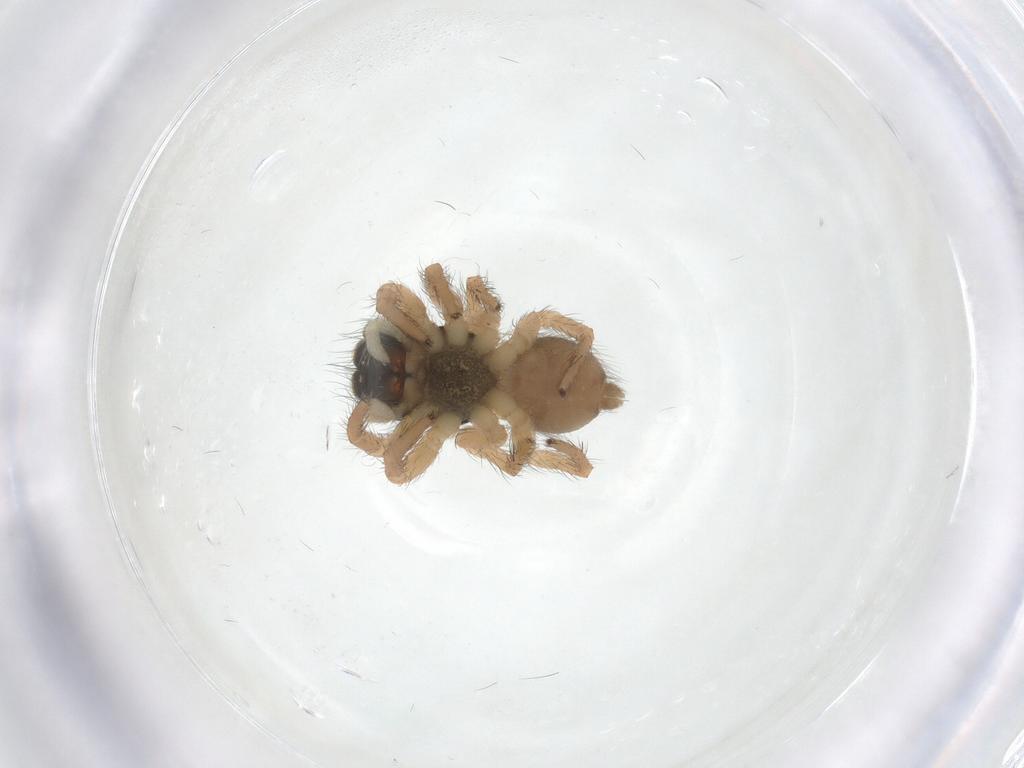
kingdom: Animalia
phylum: Arthropoda
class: Arachnida
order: Araneae
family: Salticidae
